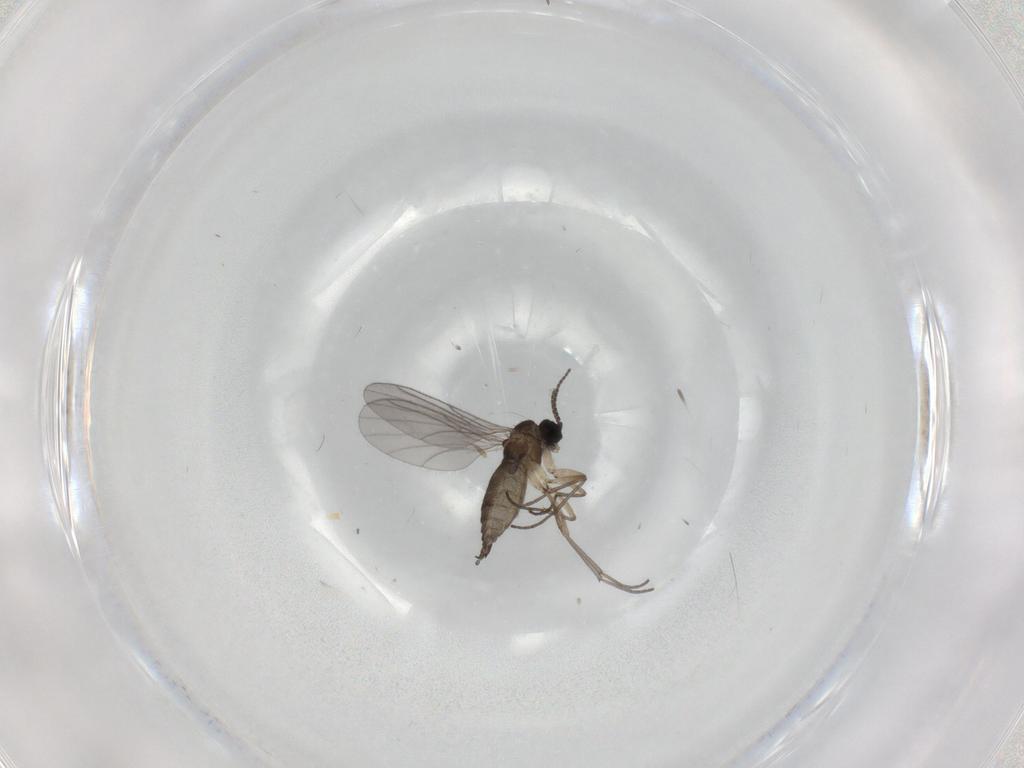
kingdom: Animalia
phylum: Arthropoda
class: Insecta
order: Diptera
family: Sciaridae
